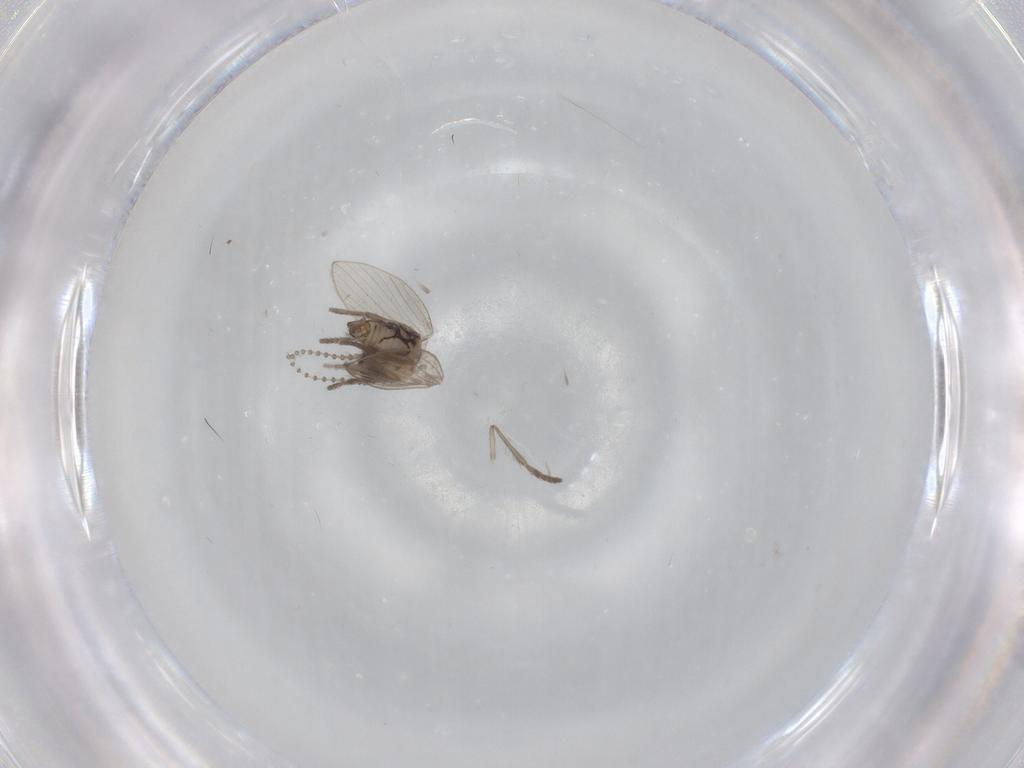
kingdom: Animalia
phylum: Arthropoda
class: Insecta
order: Diptera
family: Psychodidae
